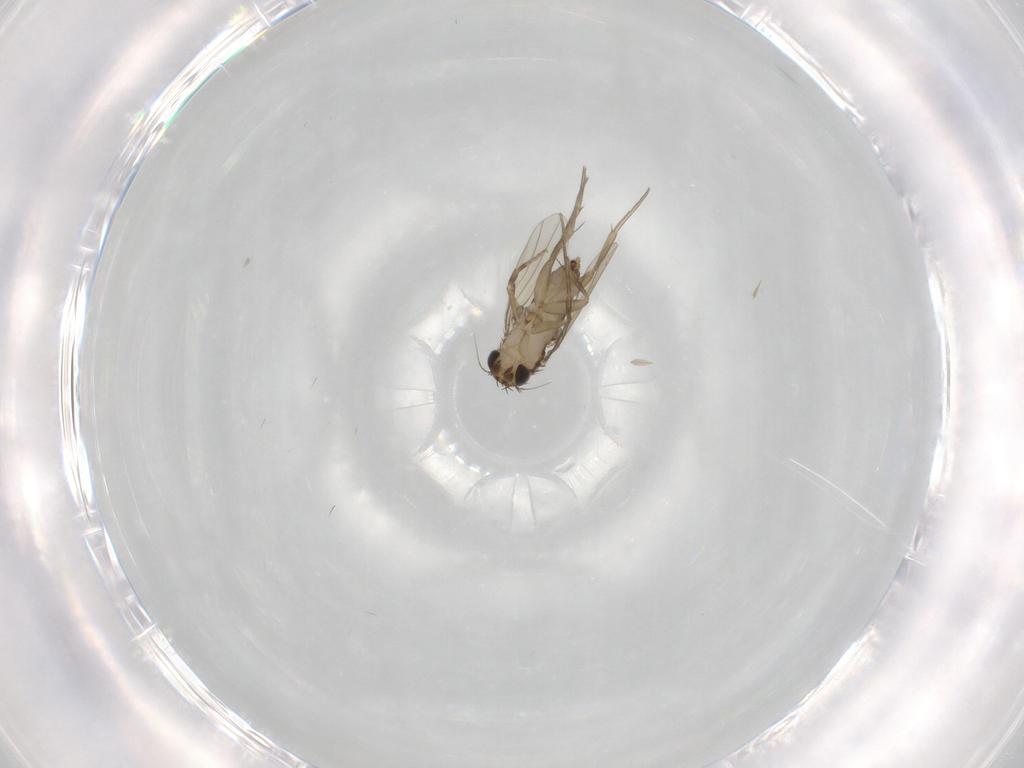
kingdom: Animalia
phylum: Arthropoda
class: Insecta
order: Diptera
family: Phoridae
